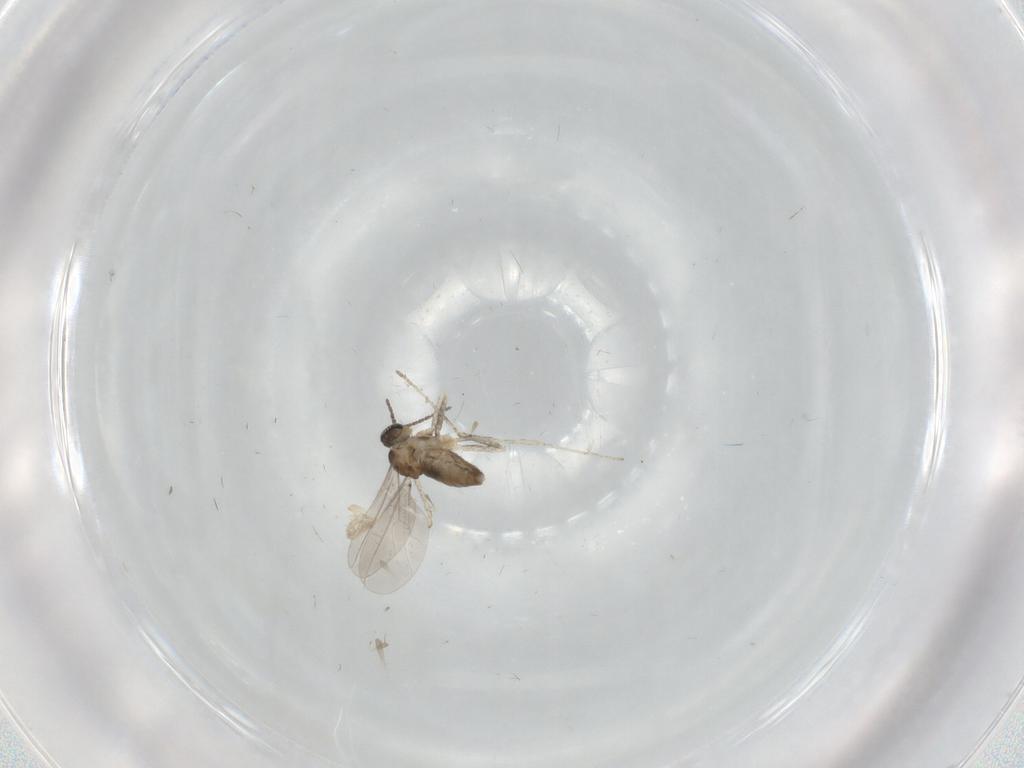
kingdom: Animalia
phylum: Arthropoda
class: Insecta
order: Diptera
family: Cecidomyiidae
